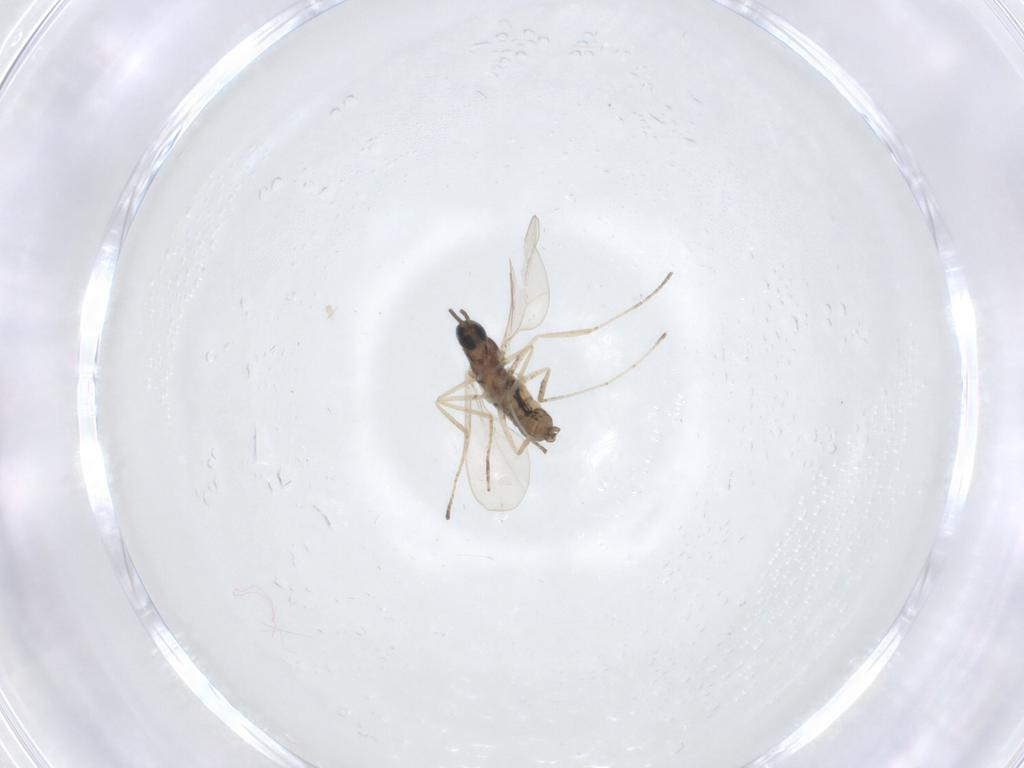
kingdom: Animalia
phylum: Arthropoda
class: Insecta
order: Diptera
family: Cecidomyiidae
